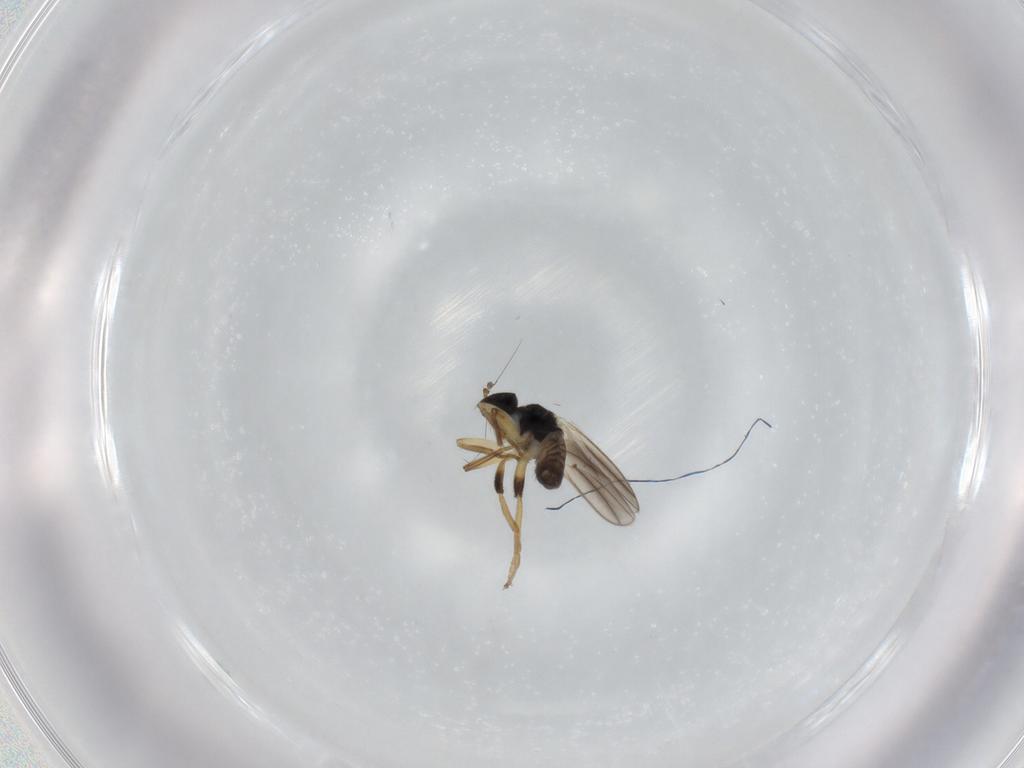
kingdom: Animalia
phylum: Arthropoda
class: Insecta
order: Diptera
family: Hybotidae
